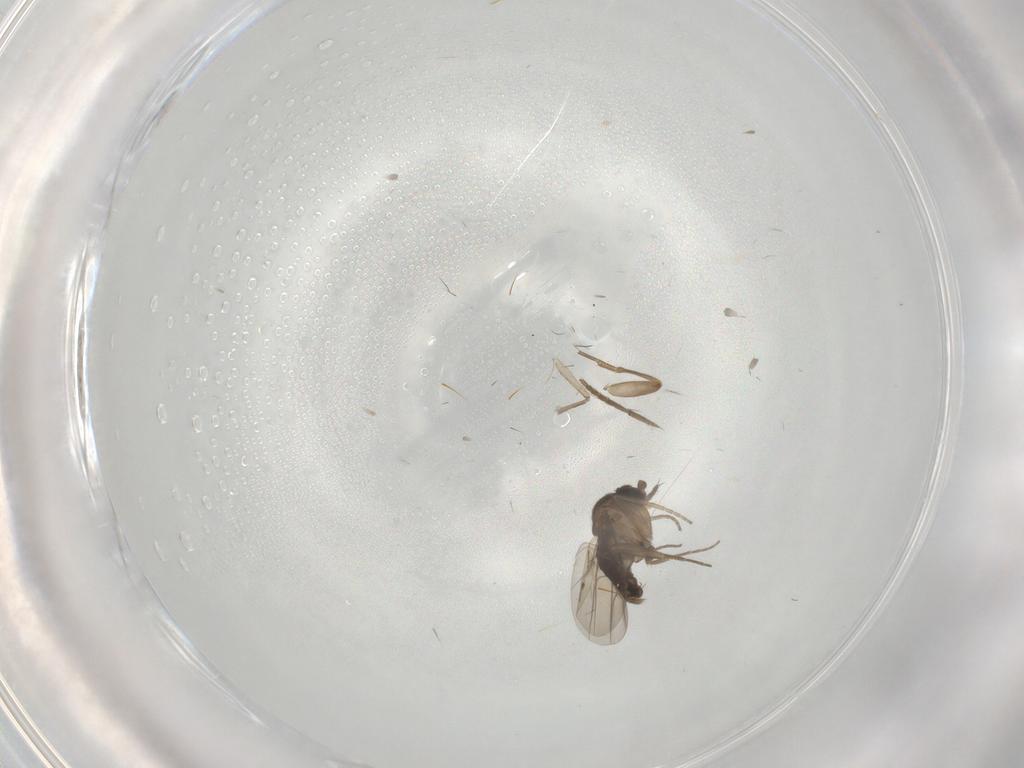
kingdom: Animalia
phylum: Arthropoda
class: Insecta
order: Diptera
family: Phoridae
